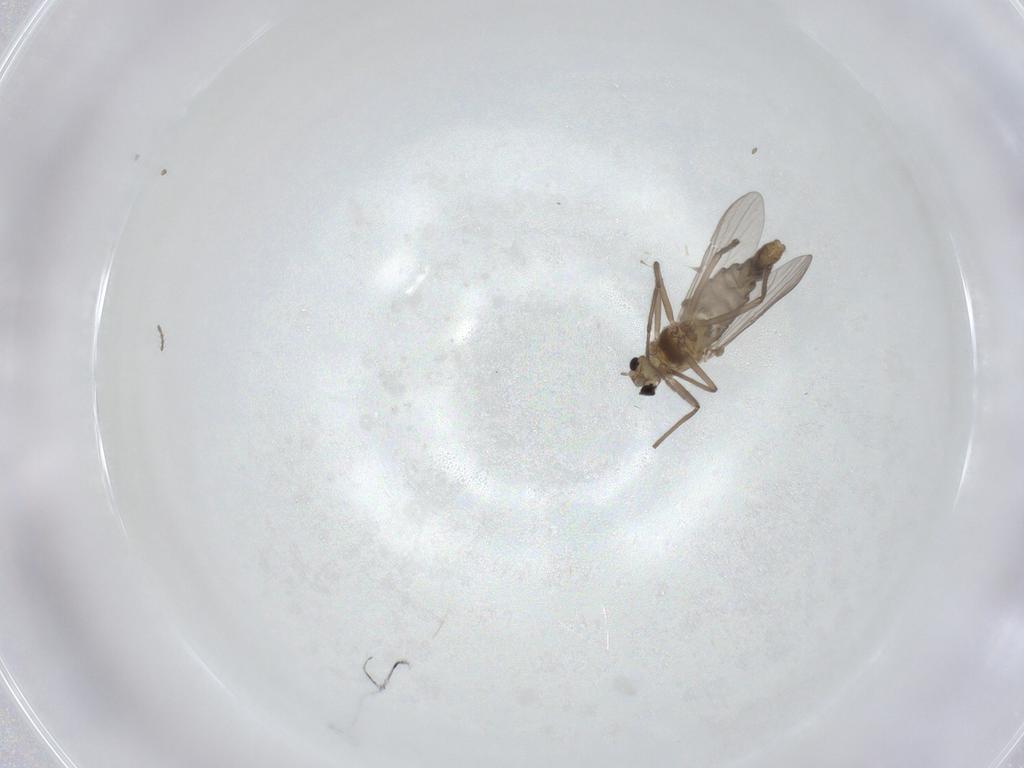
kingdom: Animalia
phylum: Arthropoda
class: Insecta
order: Diptera
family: Chironomidae
